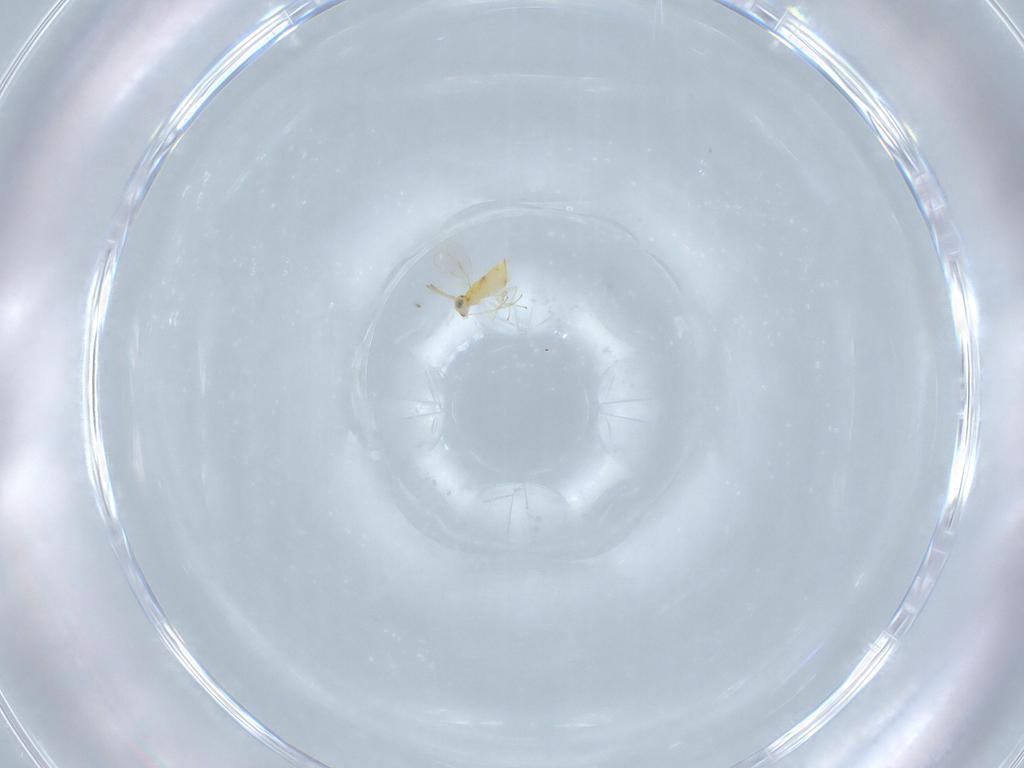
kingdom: Animalia
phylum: Arthropoda
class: Insecta
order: Hymenoptera
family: Aphelinidae
